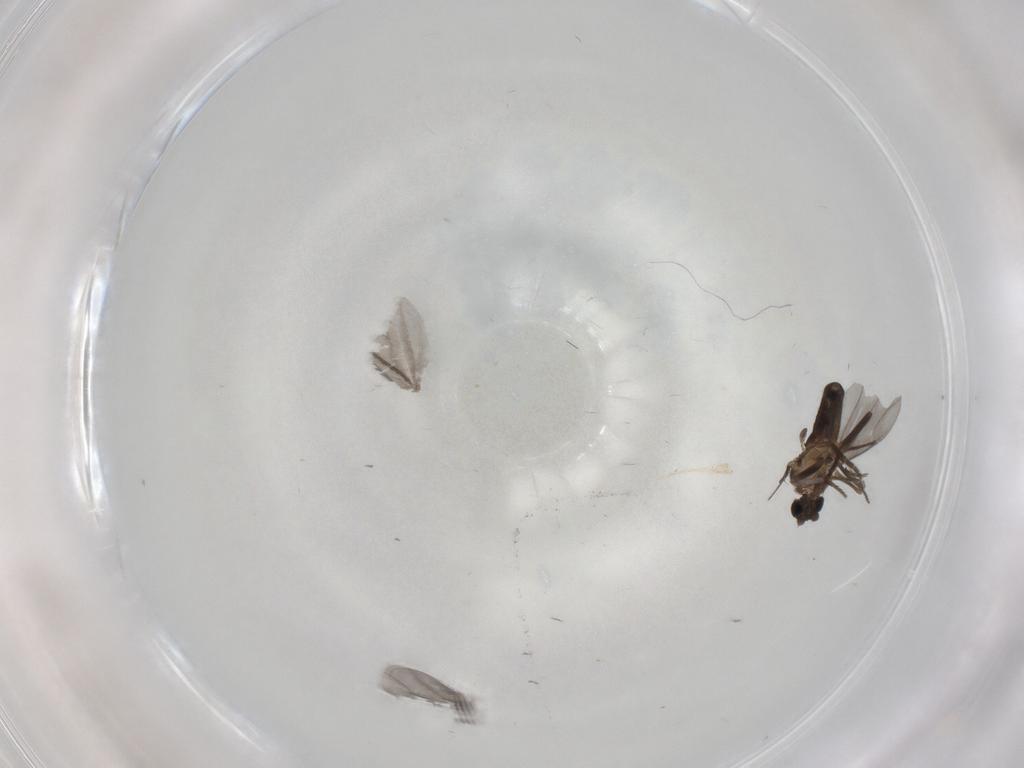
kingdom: Animalia
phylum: Arthropoda
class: Insecta
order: Diptera
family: Phoridae
